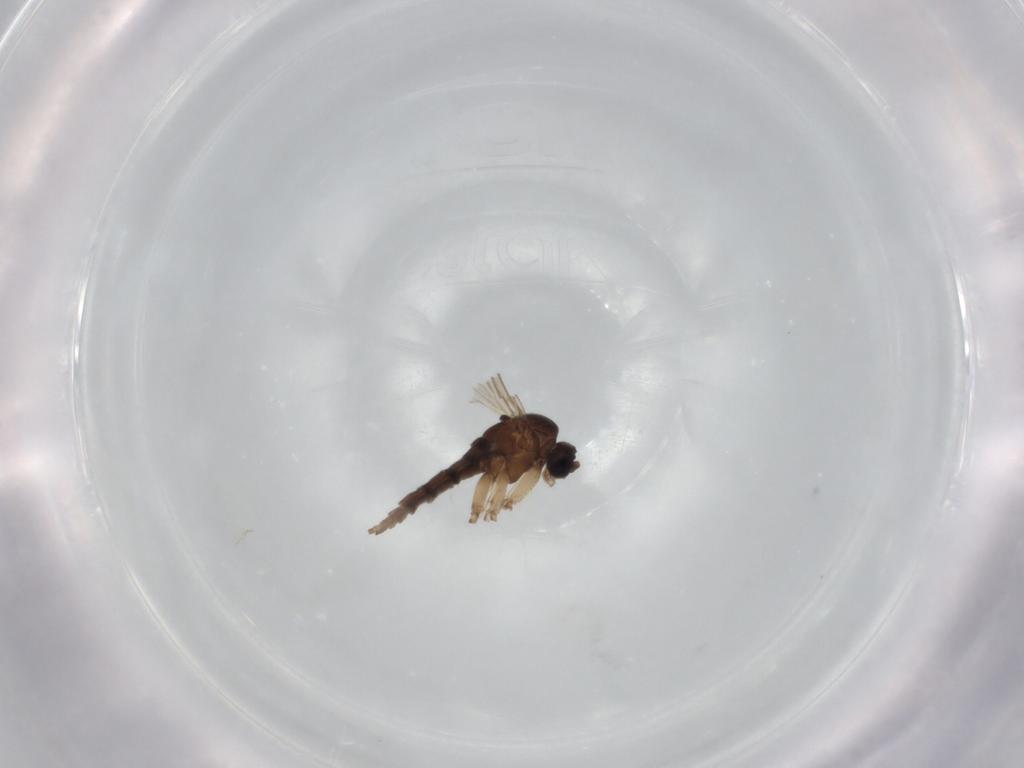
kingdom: Animalia
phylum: Arthropoda
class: Insecta
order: Diptera
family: Sciaridae
